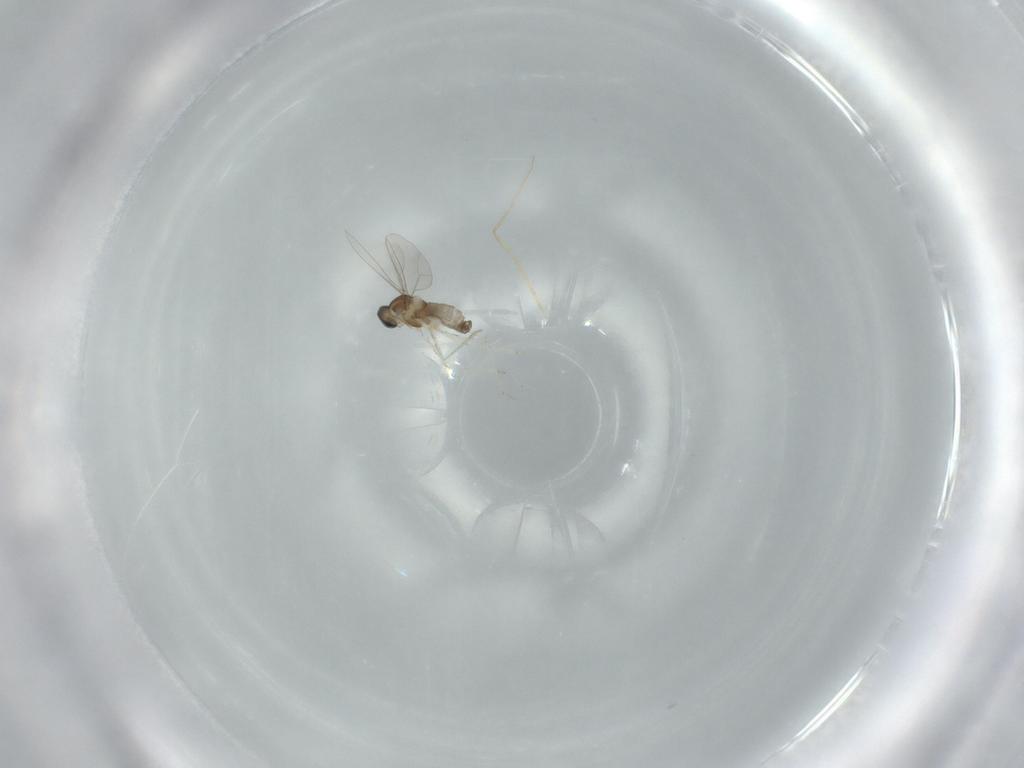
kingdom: Animalia
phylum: Arthropoda
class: Insecta
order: Diptera
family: Cecidomyiidae
